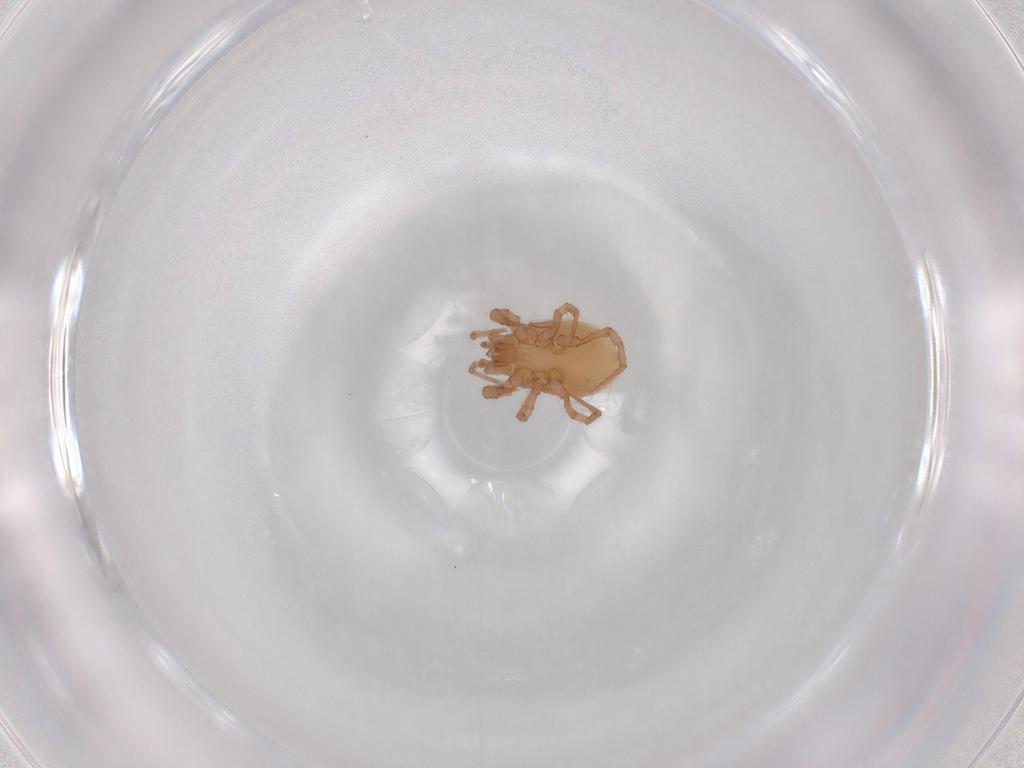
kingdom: Animalia
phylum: Arthropoda
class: Arachnida
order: Mesostigmata
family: Parasitidae
